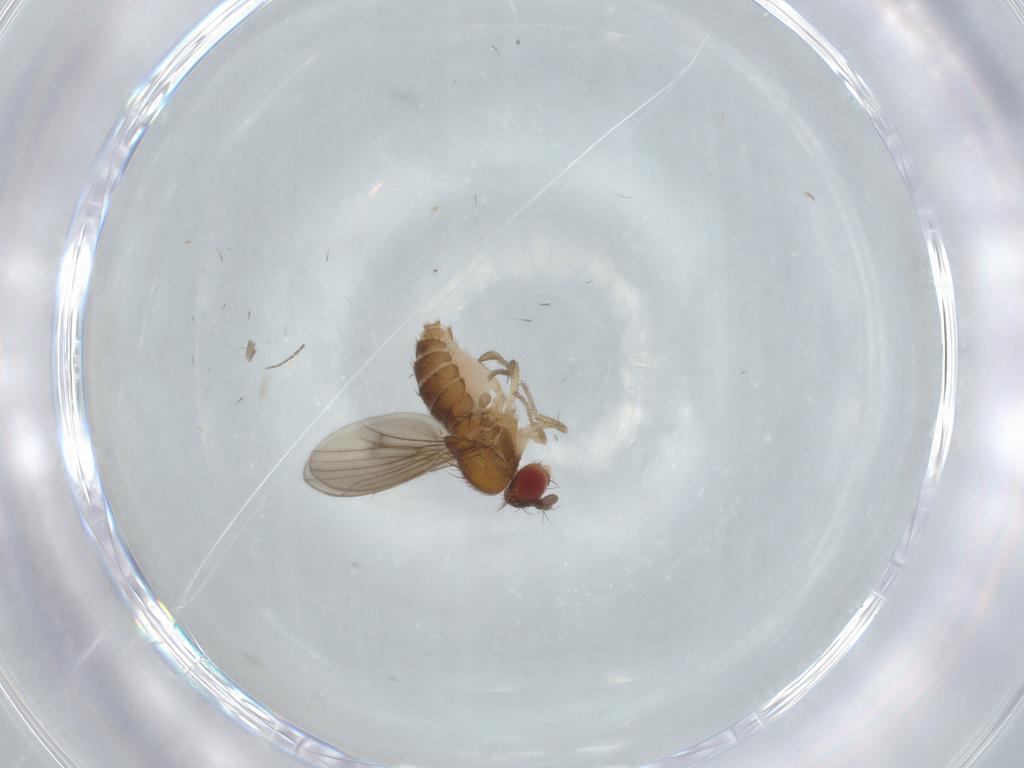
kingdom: Animalia
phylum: Arthropoda
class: Insecta
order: Diptera
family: Drosophilidae
